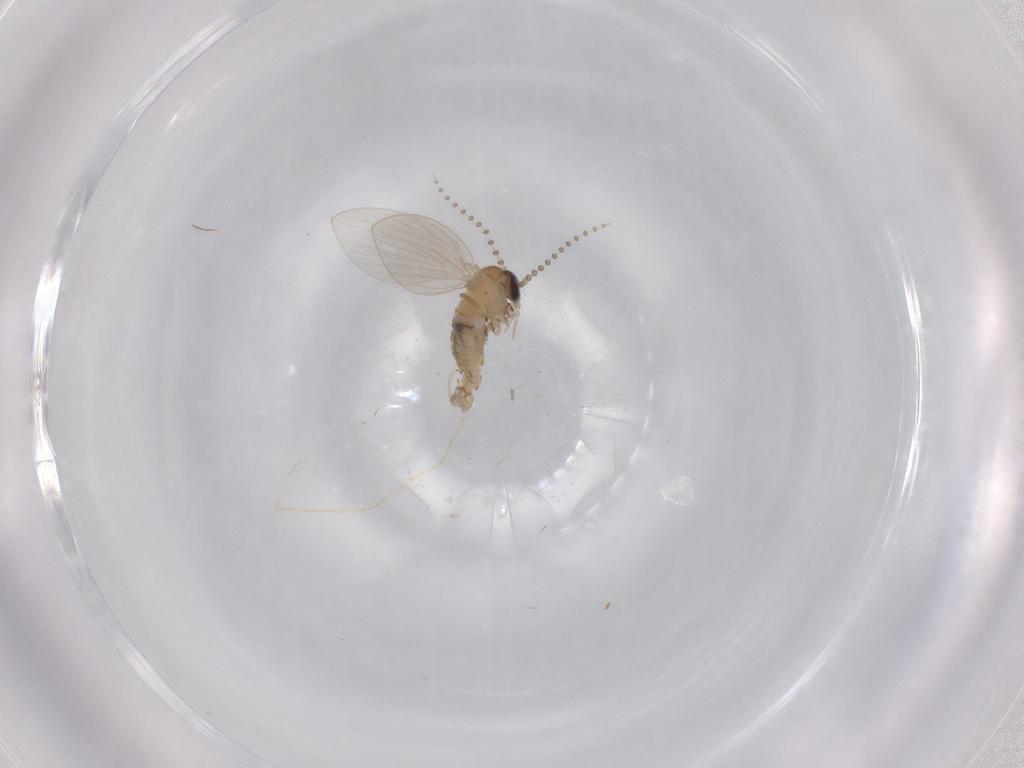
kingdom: Animalia
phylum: Arthropoda
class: Insecta
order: Diptera
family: Psychodidae
